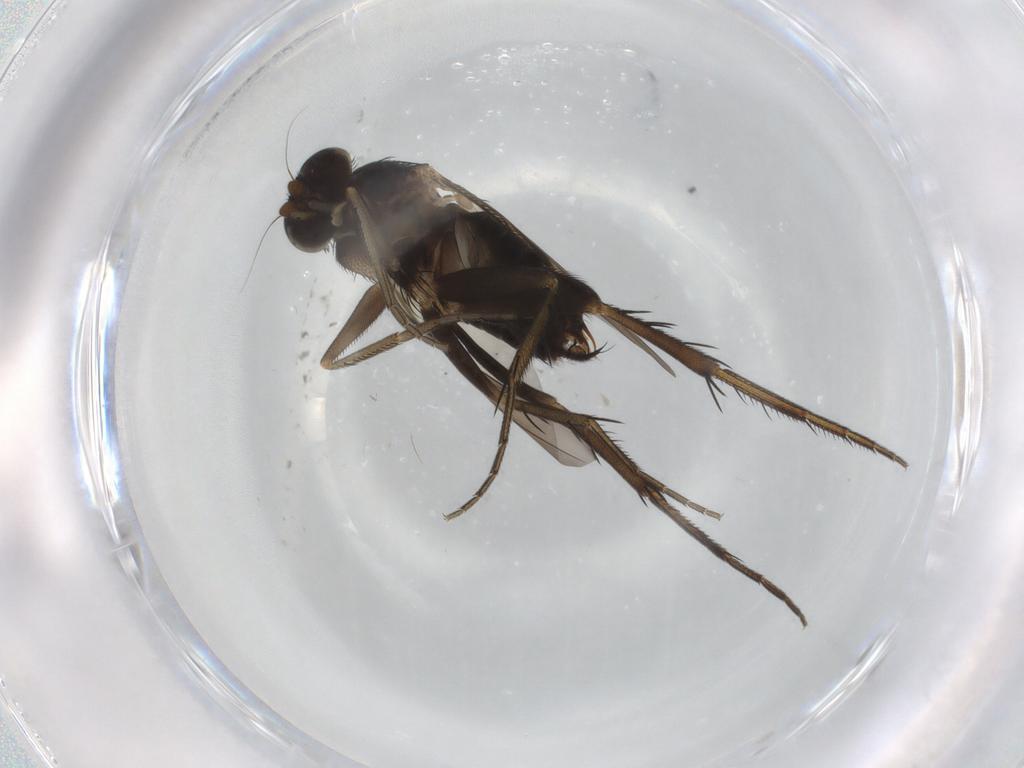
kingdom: Animalia
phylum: Arthropoda
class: Insecta
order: Diptera
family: Phoridae
